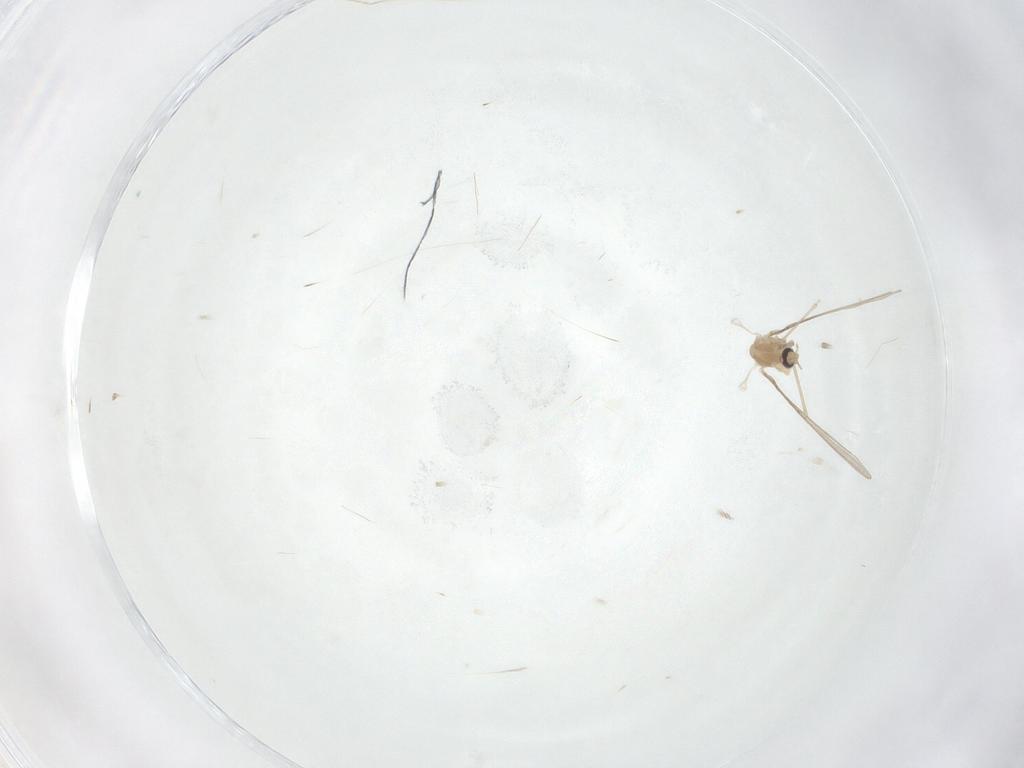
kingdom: Animalia
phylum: Arthropoda
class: Insecta
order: Diptera
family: Cecidomyiidae
